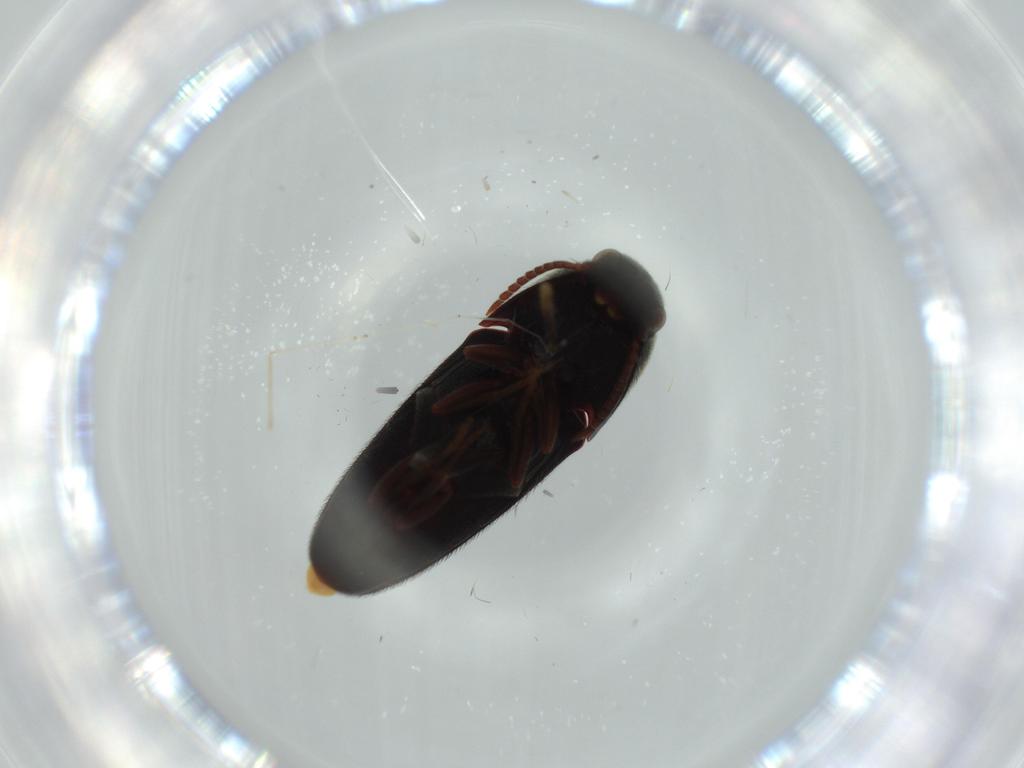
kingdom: Animalia
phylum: Arthropoda
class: Insecta
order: Coleoptera
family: Eucnemidae
